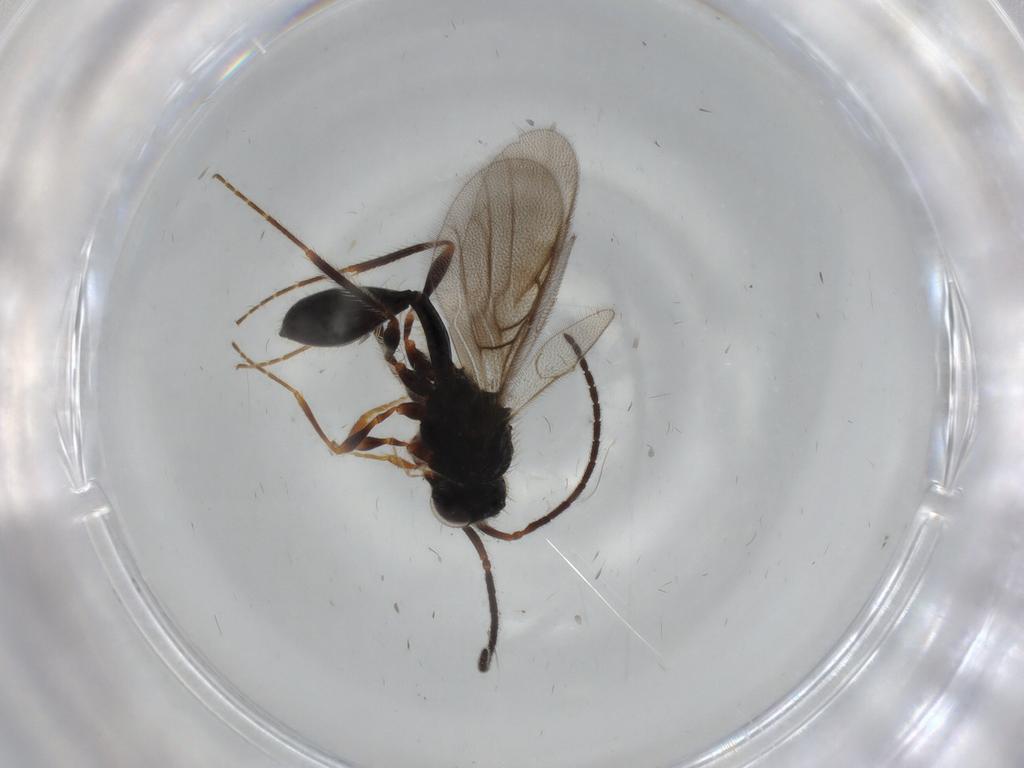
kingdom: Animalia
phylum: Arthropoda
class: Insecta
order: Hymenoptera
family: Diapriidae
